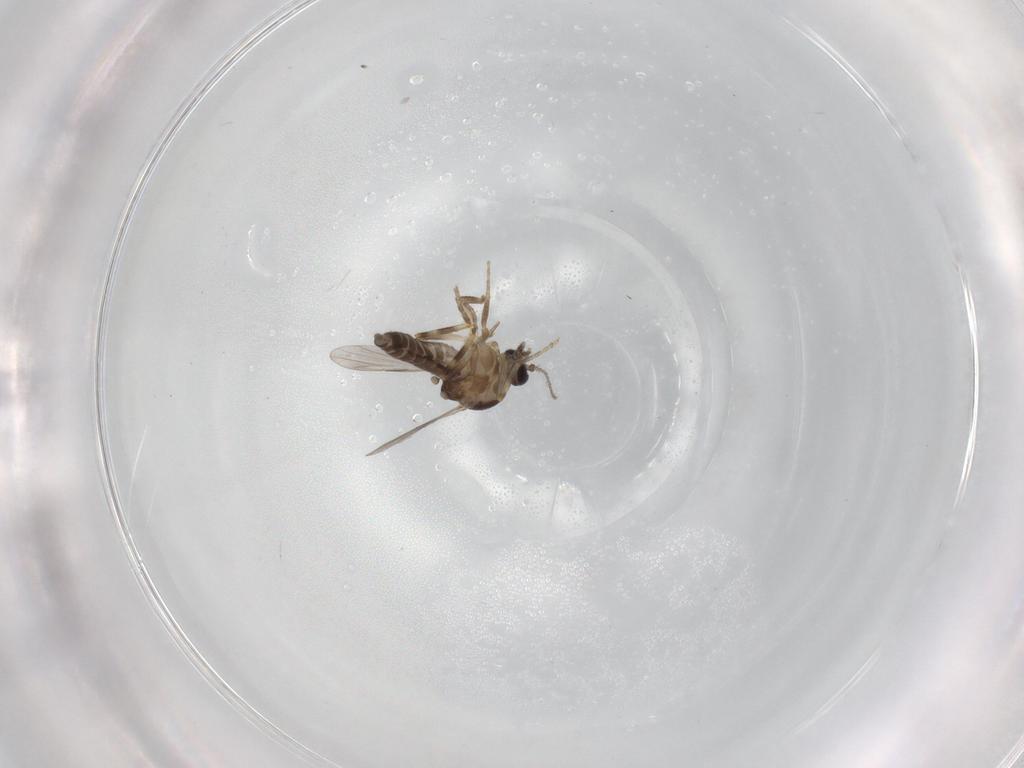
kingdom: Animalia
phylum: Arthropoda
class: Insecta
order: Diptera
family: Ceratopogonidae
